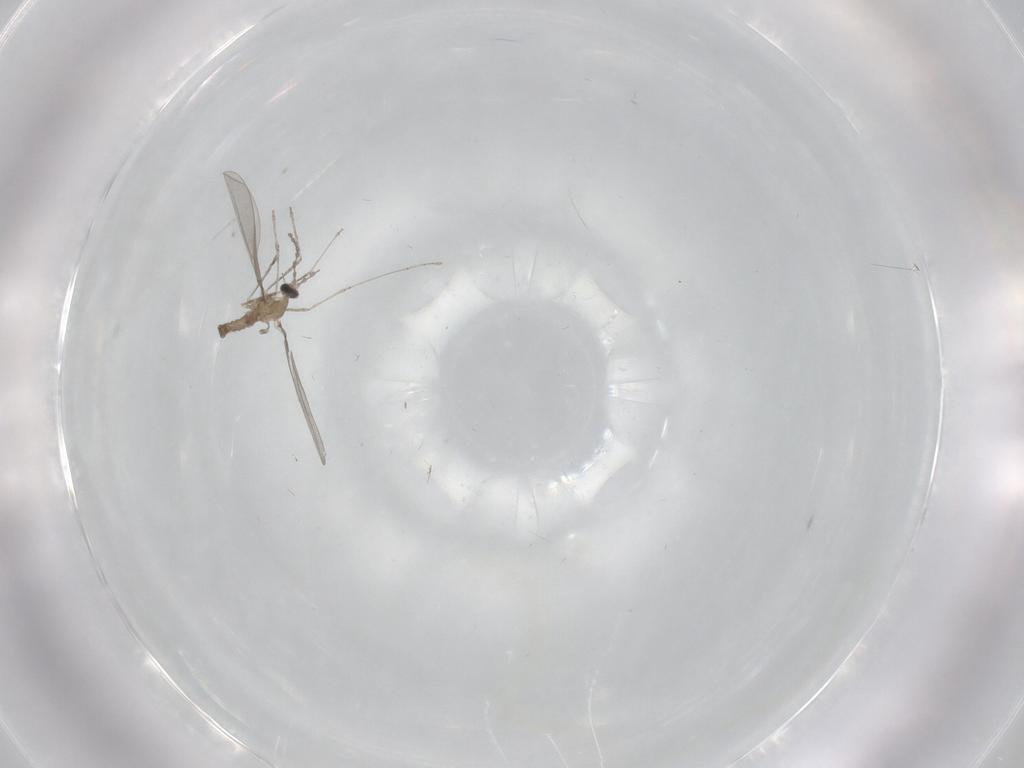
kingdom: Animalia
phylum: Arthropoda
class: Insecta
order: Diptera
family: Cecidomyiidae
